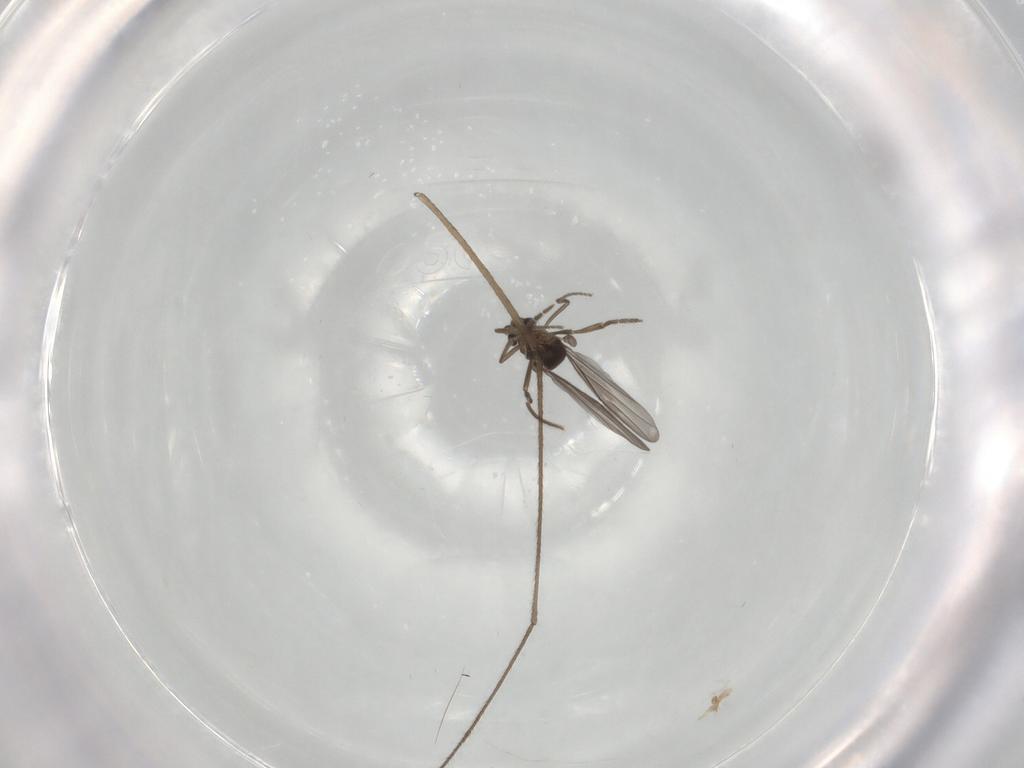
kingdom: Animalia
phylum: Arthropoda
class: Insecta
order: Diptera
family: Phoridae
